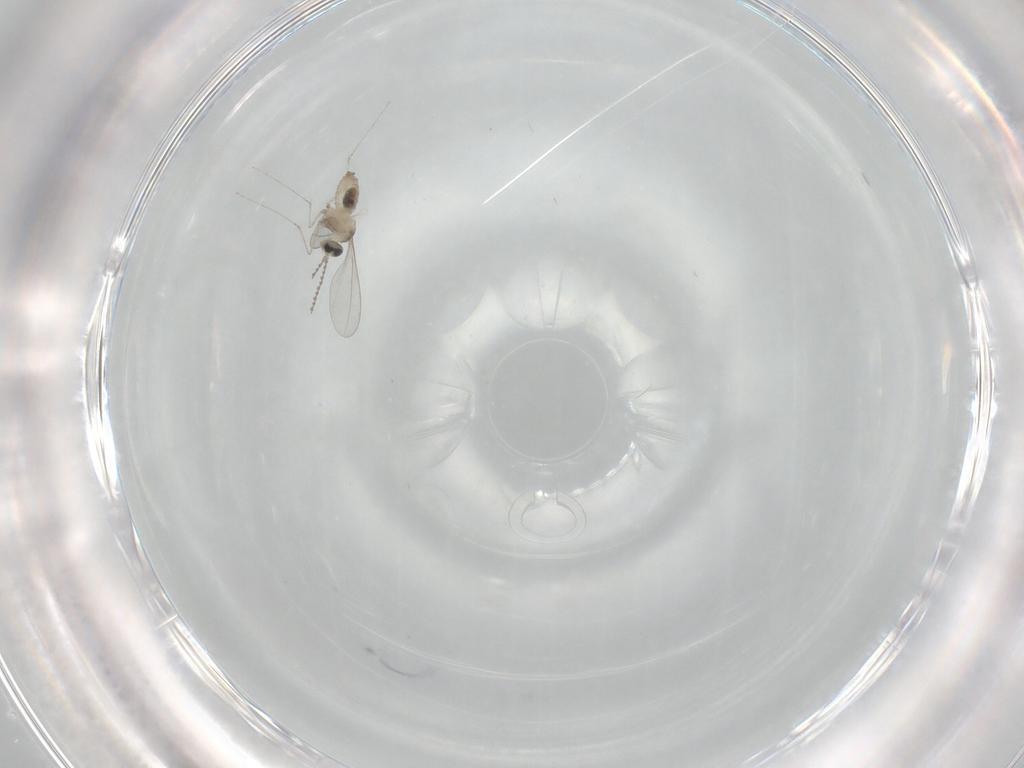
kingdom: Animalia
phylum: Arthropoda
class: Insecta
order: Diptera
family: Cecidomyiidae
